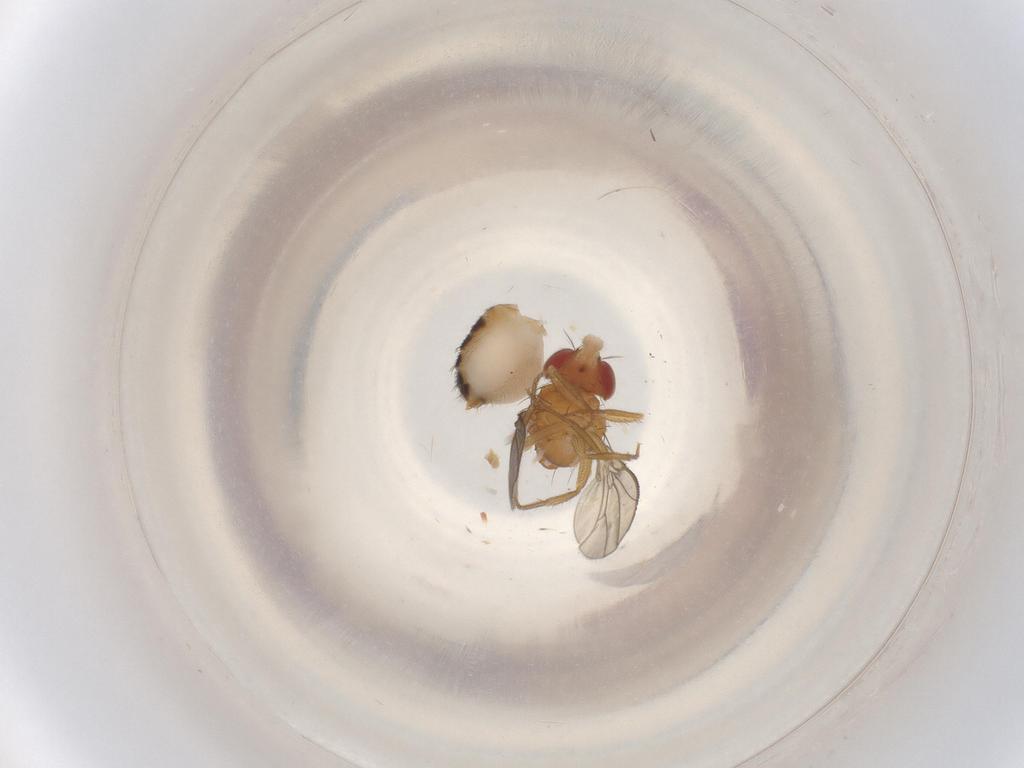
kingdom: Animalia
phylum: Arthropoda
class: Insecta
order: Diptera
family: Drosophilidae
